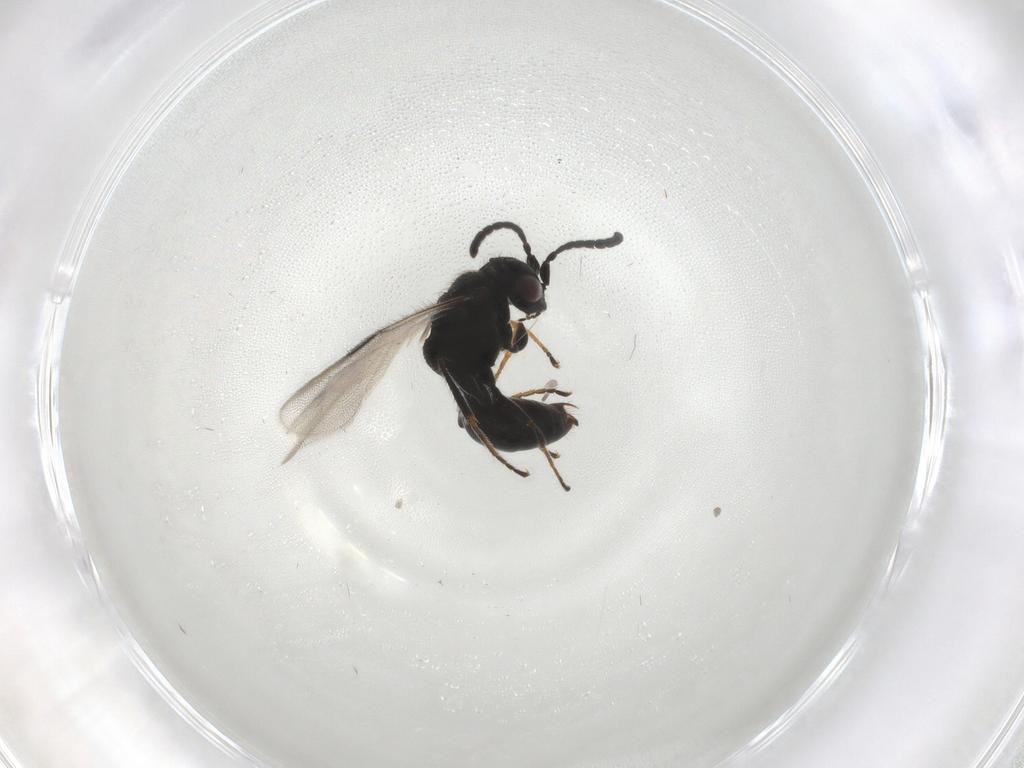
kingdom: Animalia
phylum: Arthropoda
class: Insecta
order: Hymenoptera
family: Dryinidae
